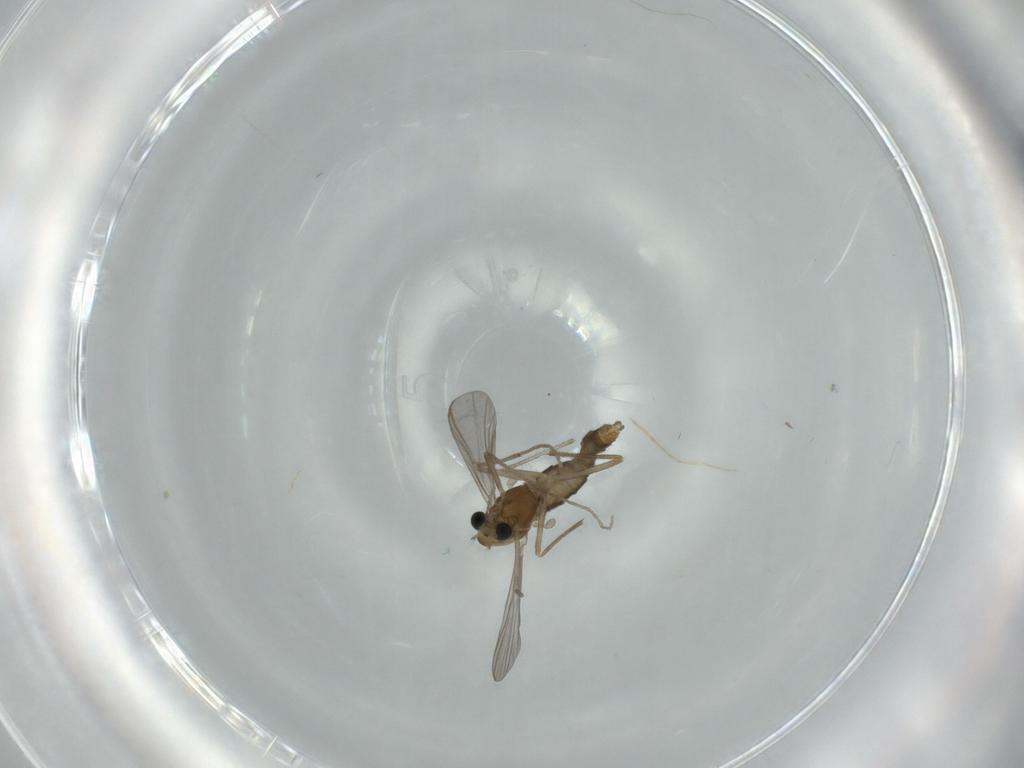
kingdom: Animalia
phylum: Arthropoda
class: Insecta
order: Diptera
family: Chironomidae
